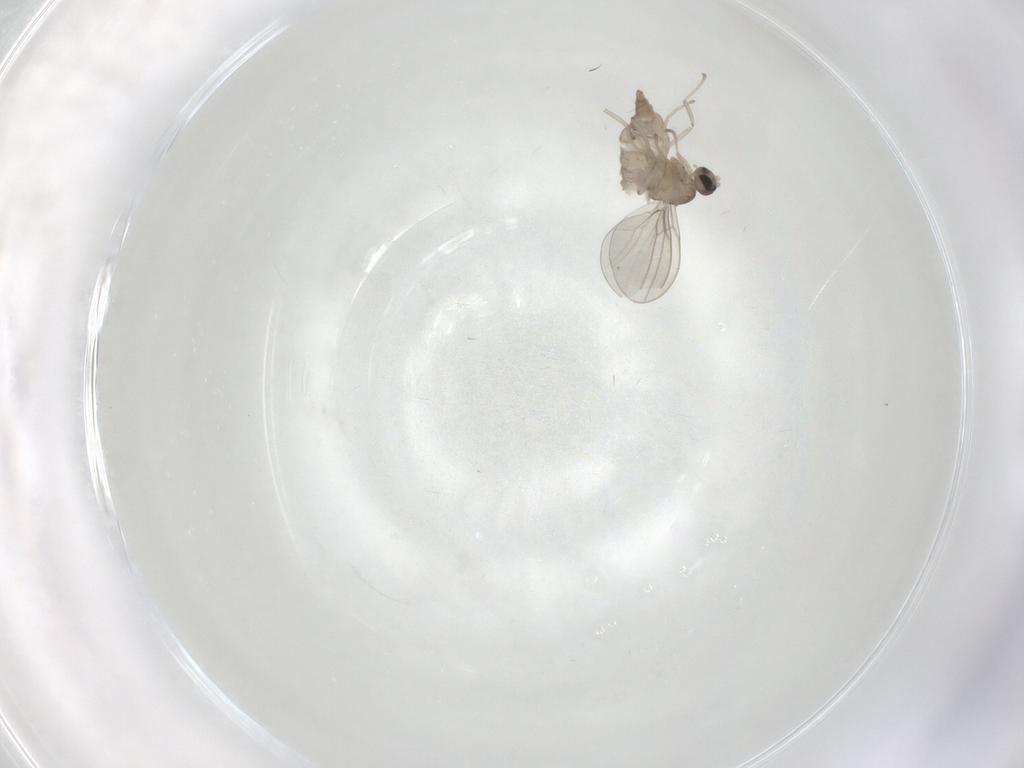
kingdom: Animalia
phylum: Arthropoda
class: Insecta
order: Diptera
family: Cecidomyiidae
